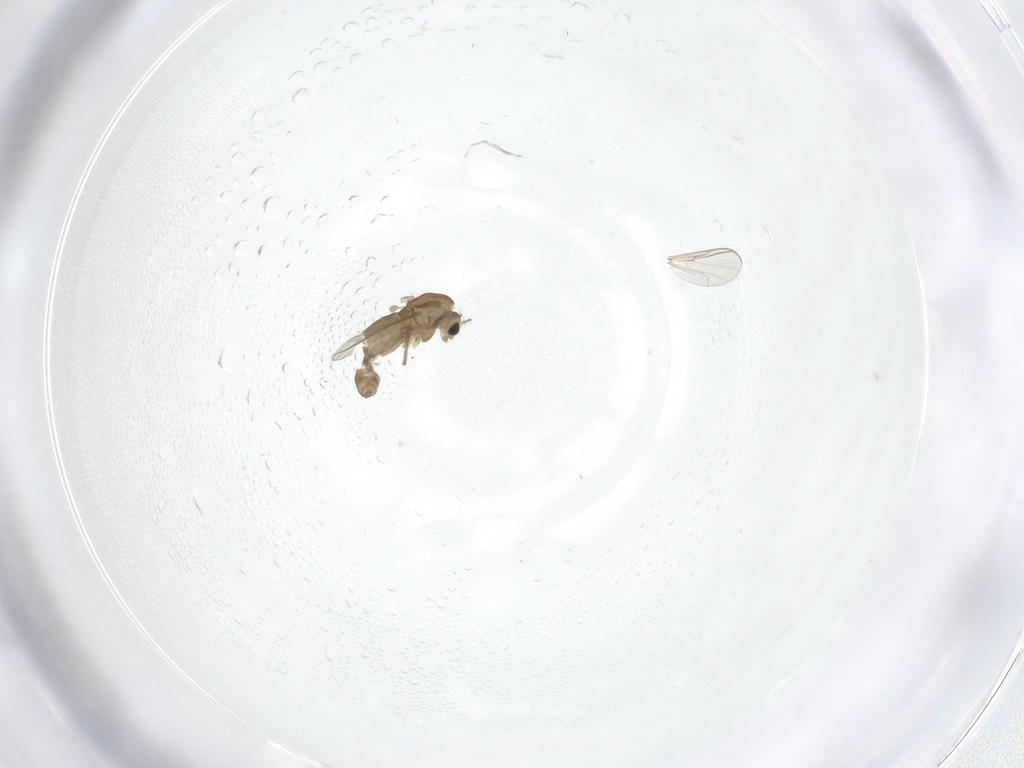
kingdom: Animalia
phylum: Arthropoda
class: Insecta
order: Diptera
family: Chironomidae
